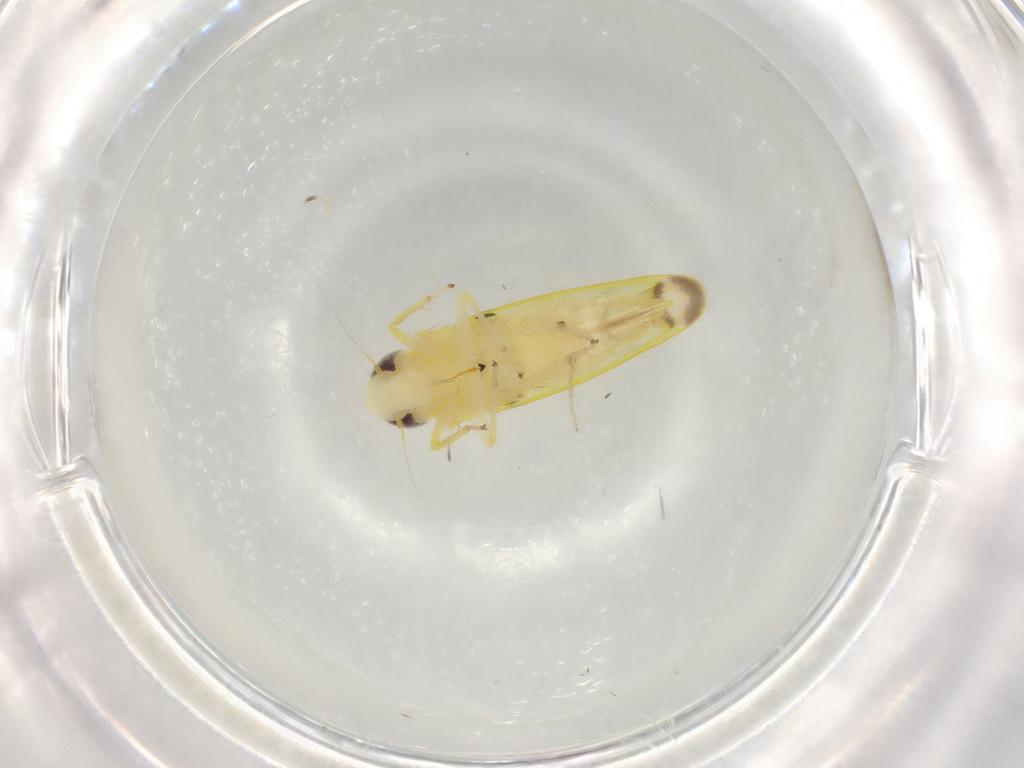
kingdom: Animalia
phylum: Arthropoda
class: Insecta
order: Hemiptera
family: Cicadellidae
